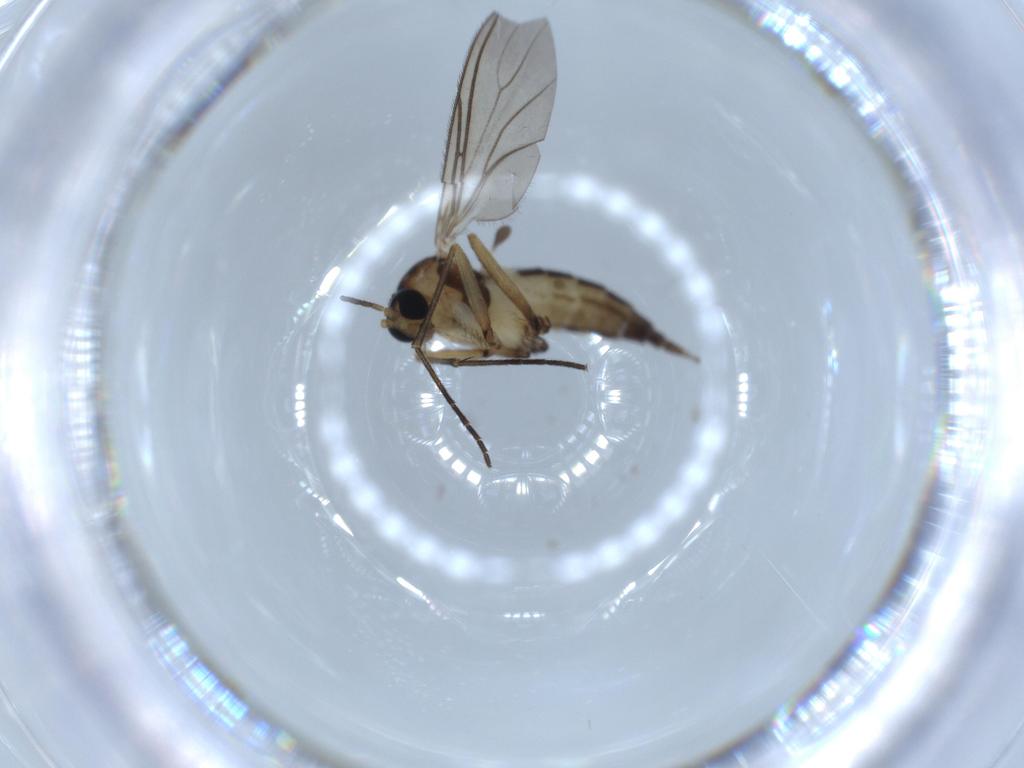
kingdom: Animalia
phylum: Arthropoda
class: Insecta
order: Diptera
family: Sciaridae
